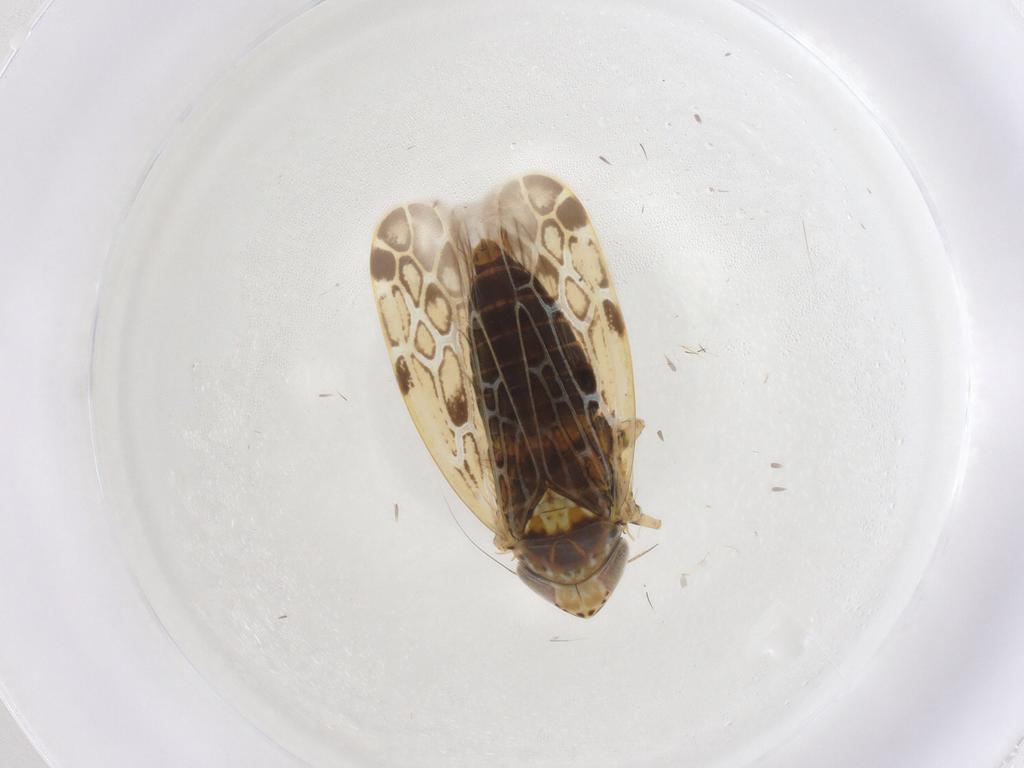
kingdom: Animalia
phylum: Arthropoda
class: Insecta
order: Hemiptera
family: Cicadellidae
